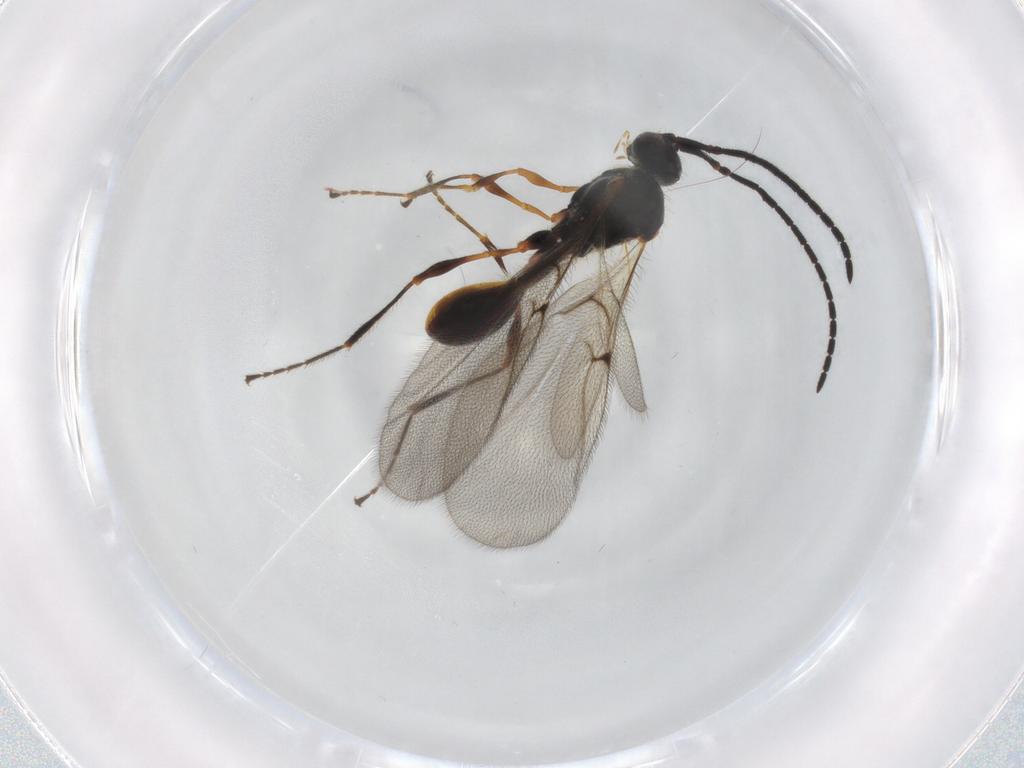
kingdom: Animalia
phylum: Arthropoda
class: Insecta
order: Hymenoptera
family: Diapriidae
